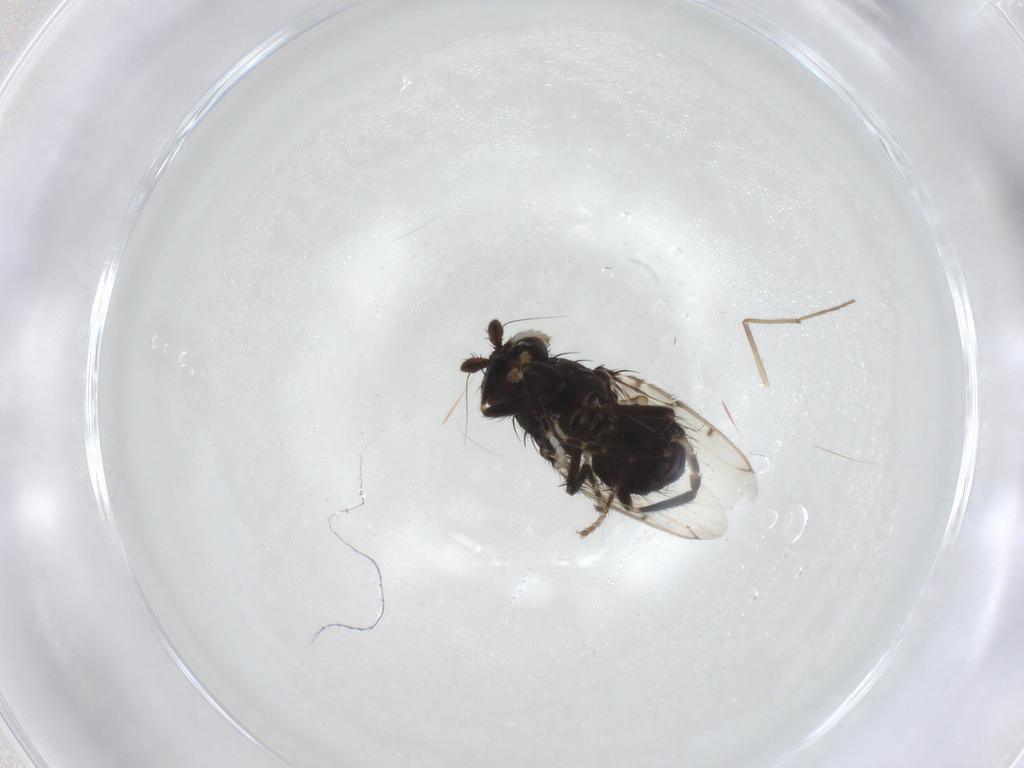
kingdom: Animalia
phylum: Arthropoda
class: Insecta
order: Diptera
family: Sphaeroceridae
